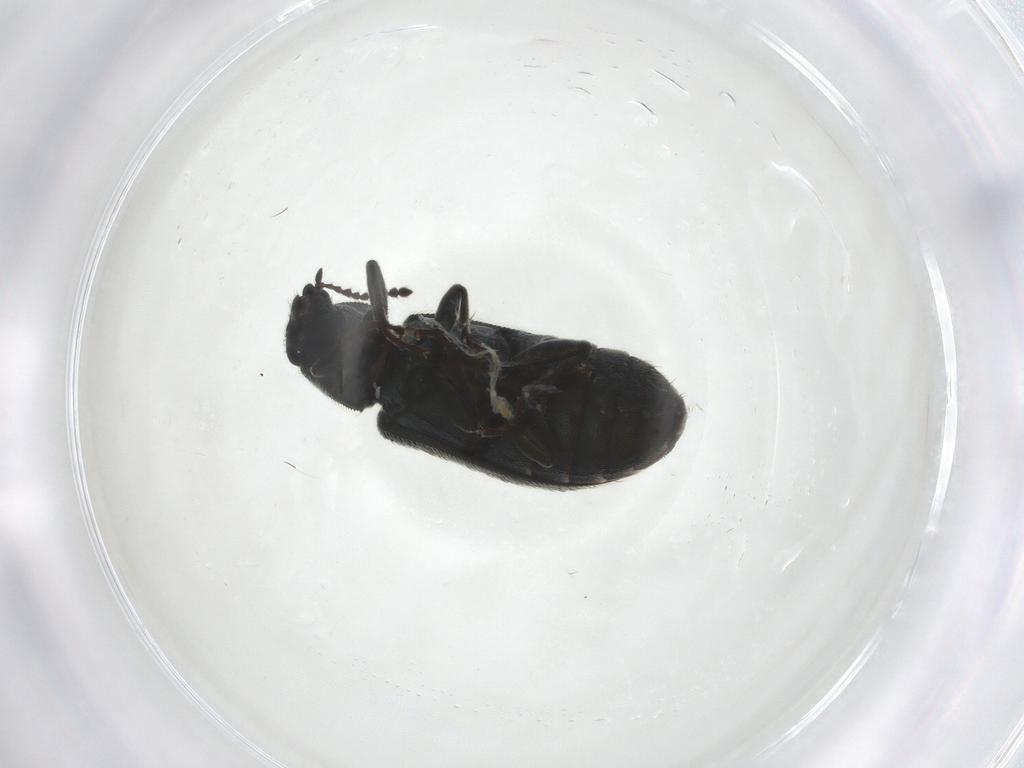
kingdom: Animalia
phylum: Arthropoda
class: Insecta
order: Coleoptera
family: Melyridae
